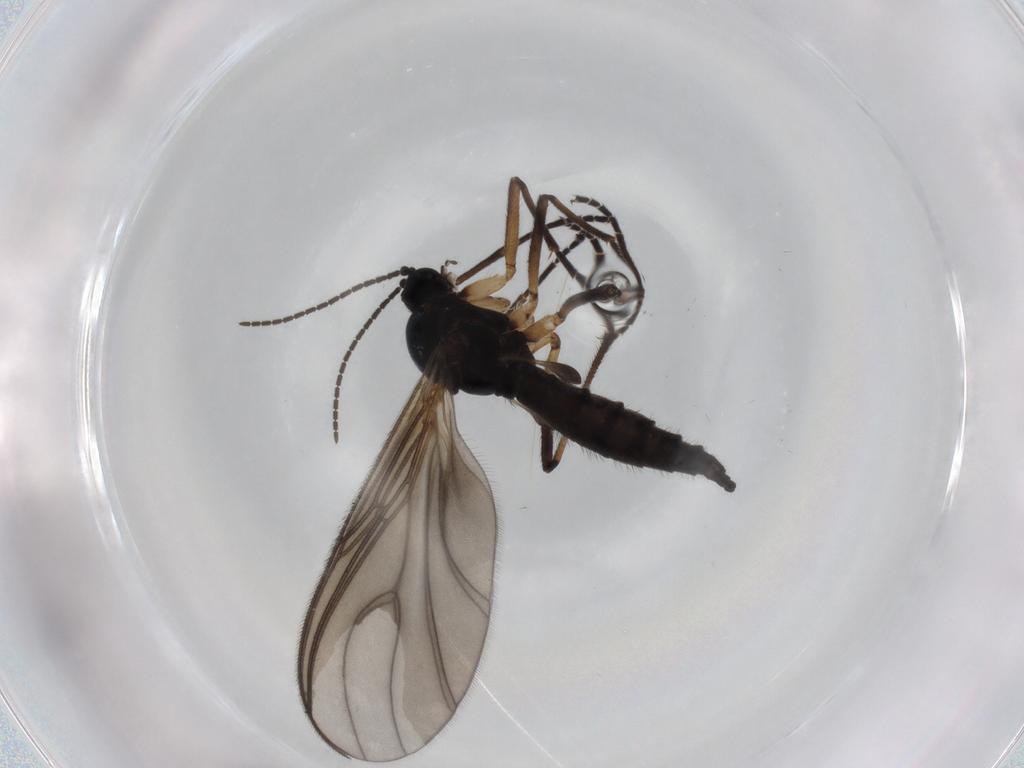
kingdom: Animalia
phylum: Arthropoda
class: Insecta
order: Diptera
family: Sciaridae
